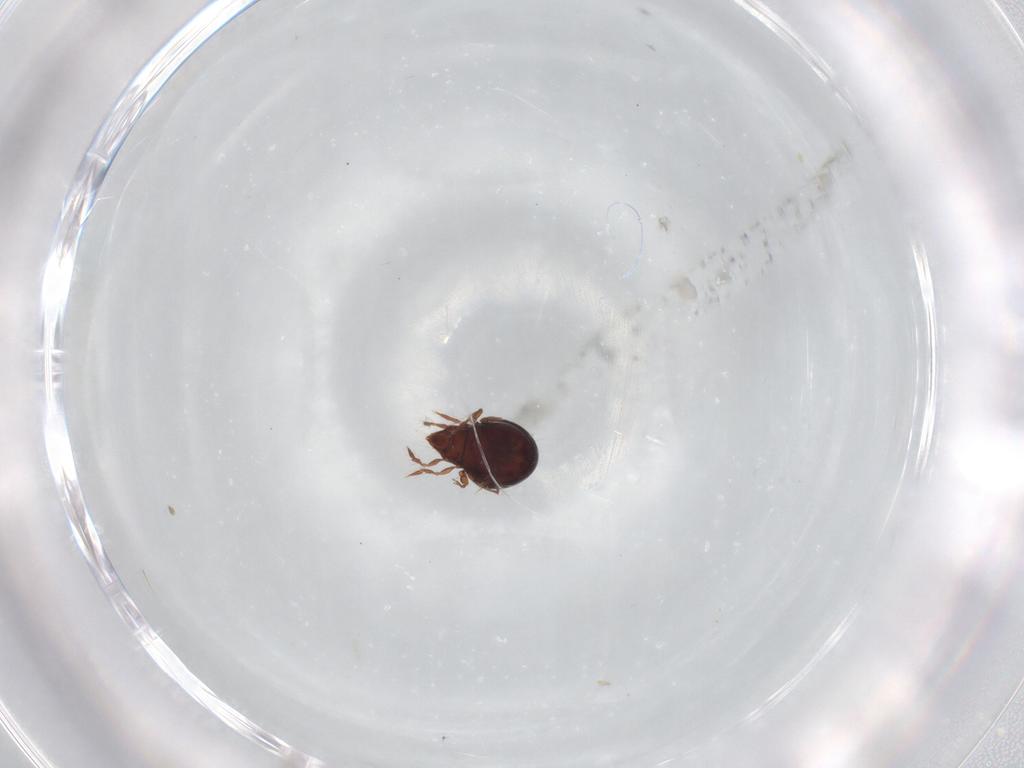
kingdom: Animalia
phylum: Arthropoda
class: Arachnida
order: Sarcoptiformes
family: Ceratoppiidae
